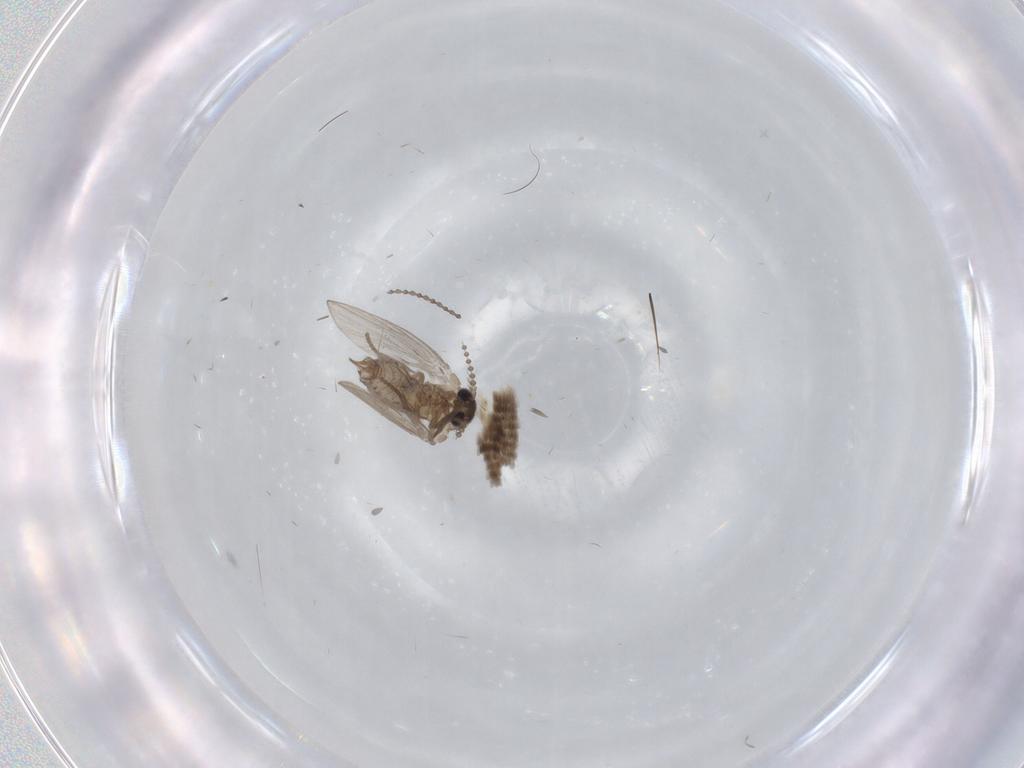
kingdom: Animalia
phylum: Arthropoda
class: Insecta
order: Diptera
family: Psychodidae
